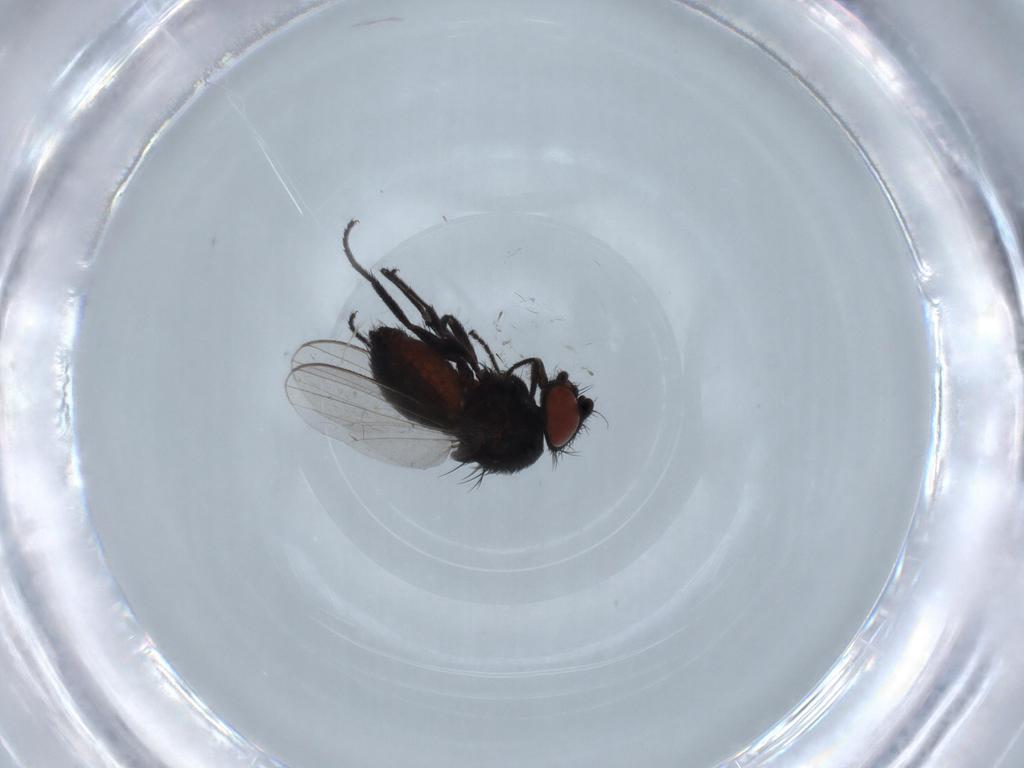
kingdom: Animalia
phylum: Arthropoda
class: Insecta
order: Diptera
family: Milichiidae
